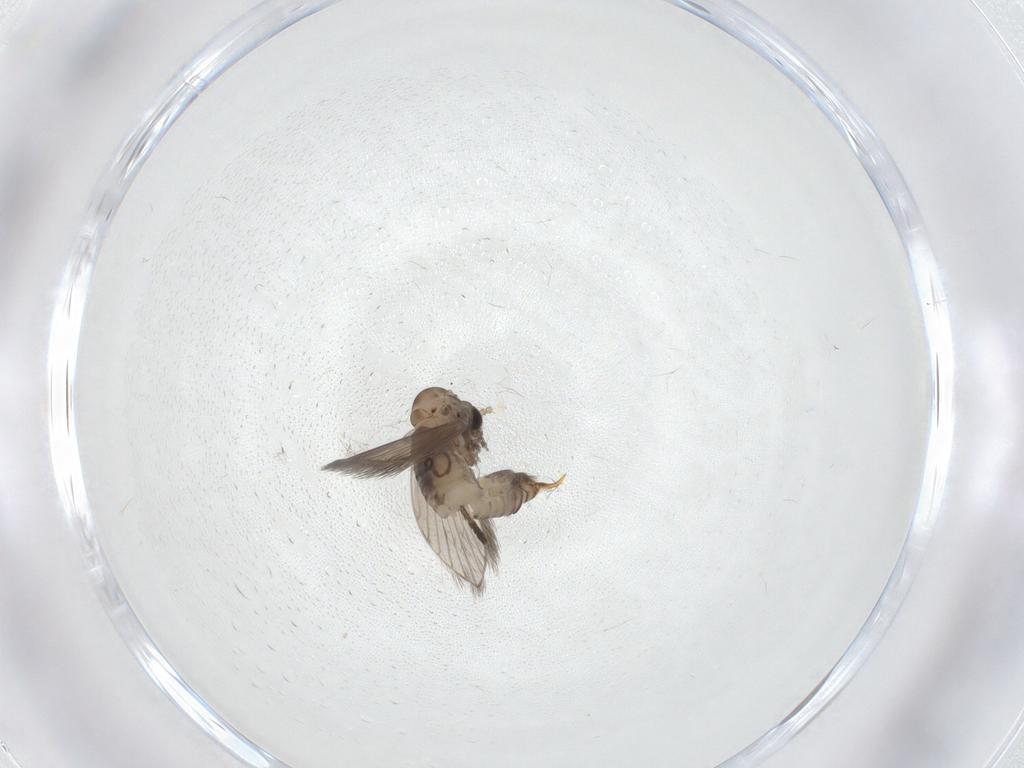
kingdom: Animalia
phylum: Arthropoda
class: Insecta
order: Diptera
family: Psychodidae
